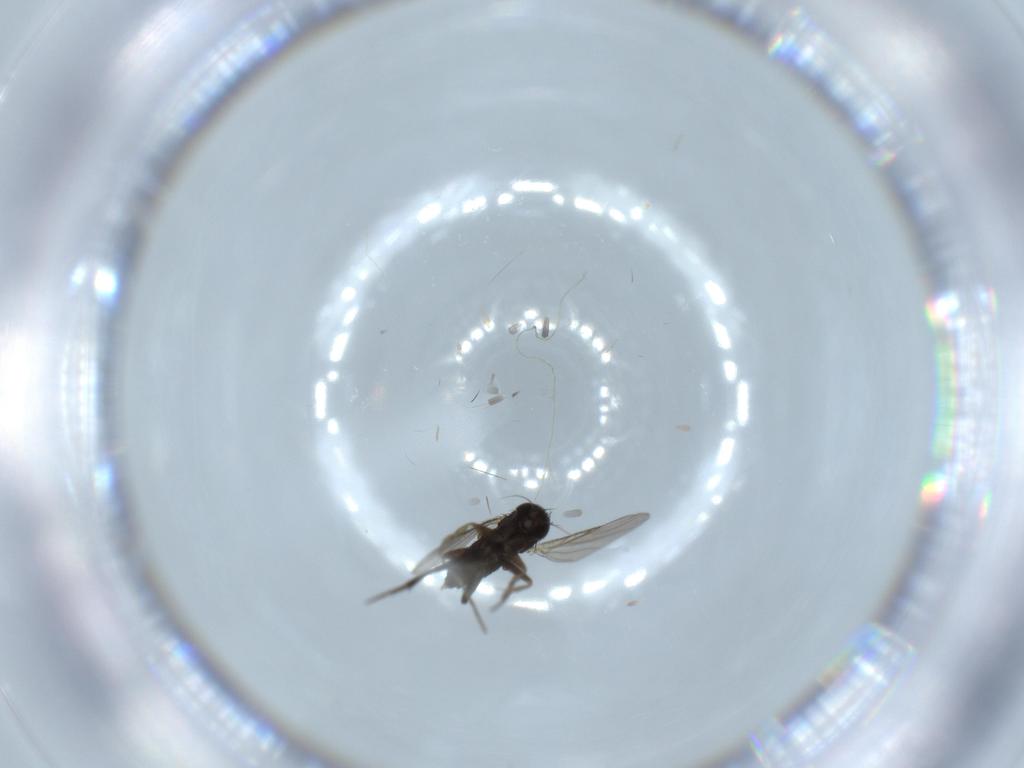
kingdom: Animalia
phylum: Arthropoda
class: Insecta
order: Diptera
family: Phoridae
